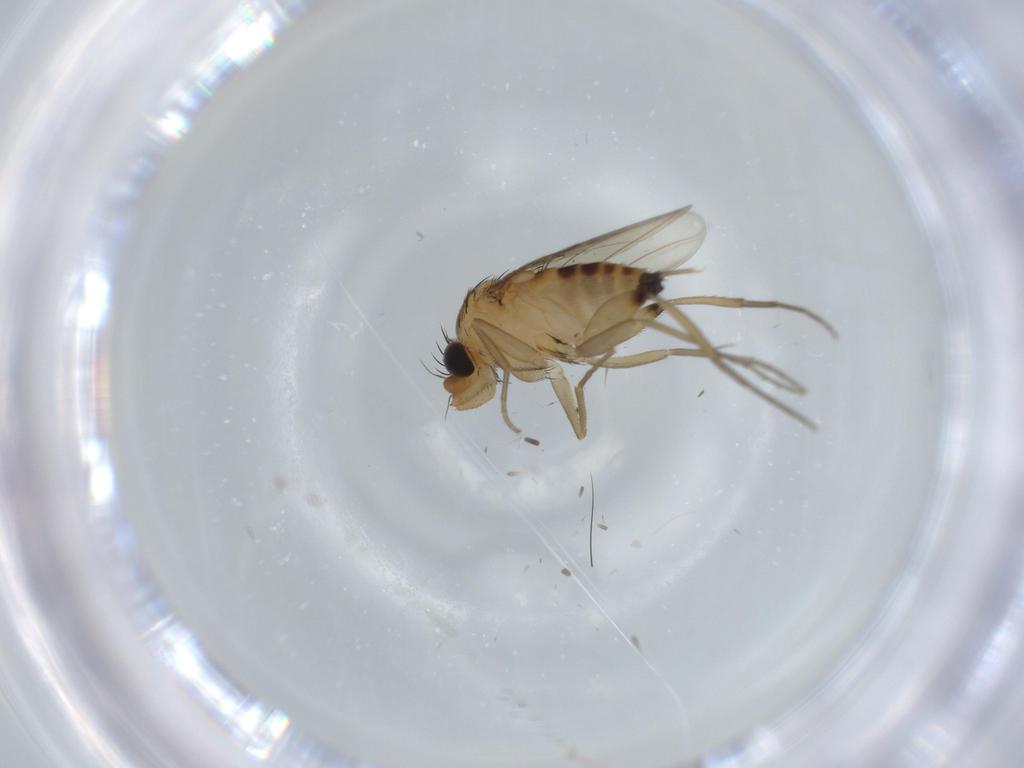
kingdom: Animalia
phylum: Arthropoda
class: Insecta
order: Diptera
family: Phoridae
